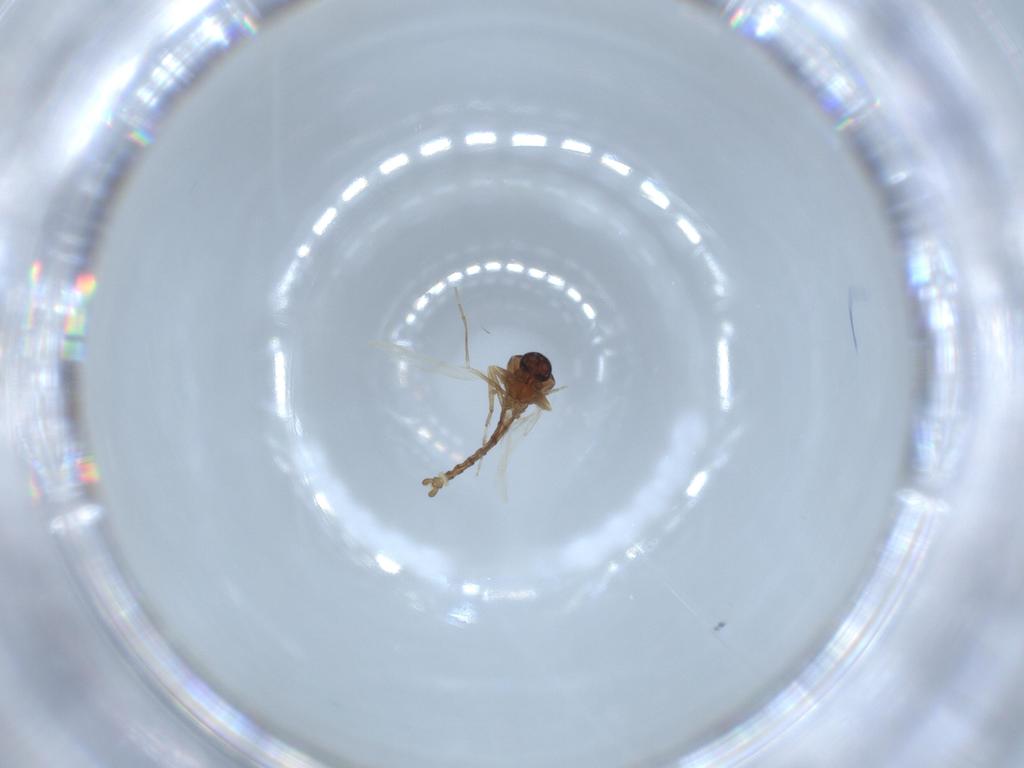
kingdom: Animalia
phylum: Arthropoda
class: Insecta
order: Diptera
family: Ceratopogonidae
